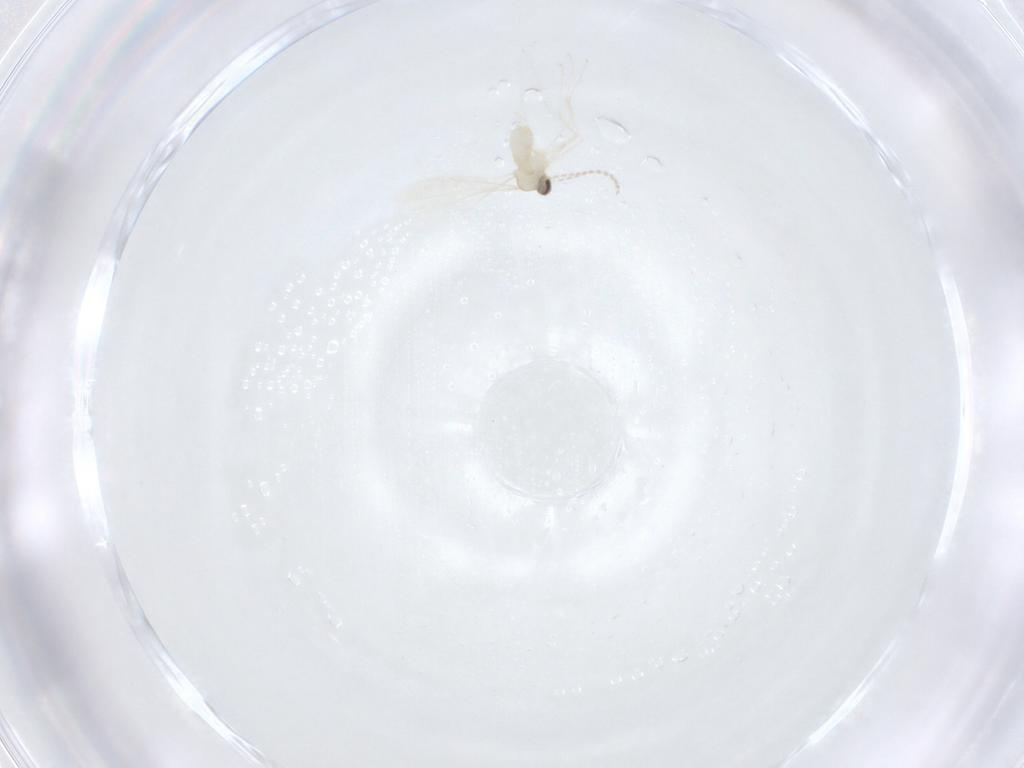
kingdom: Animalia
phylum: Arthropoda
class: Insecta
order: Diptera
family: Cecidomyiidae
